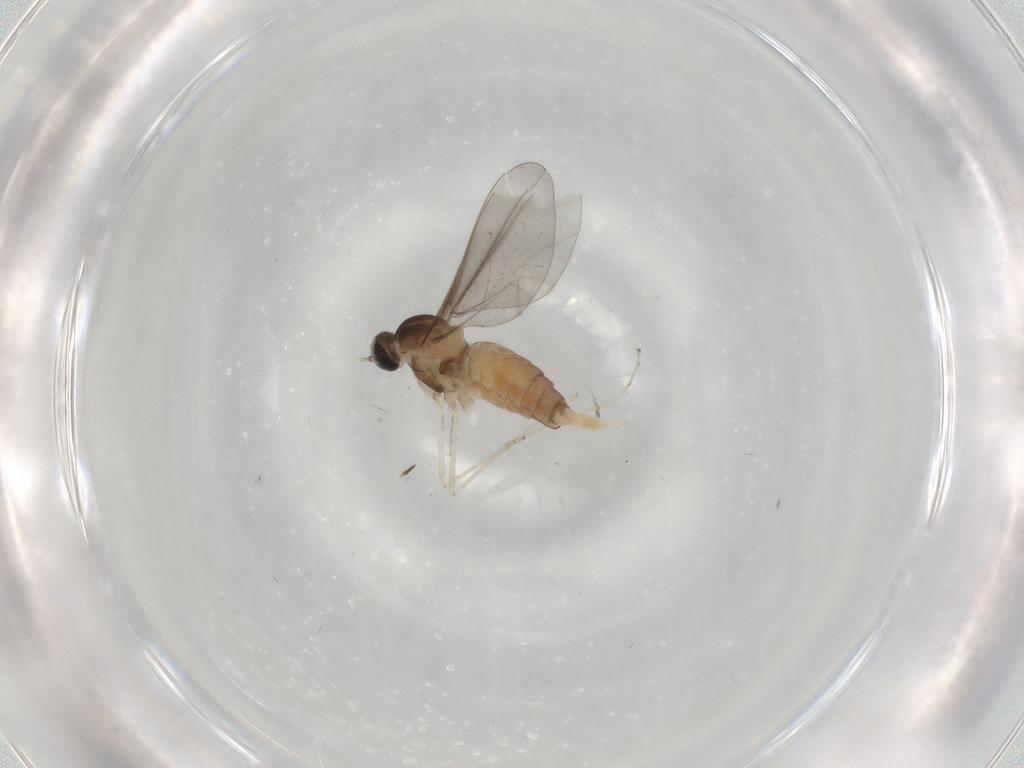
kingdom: Animalia
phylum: Arthropoda
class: Insecta
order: Diptera
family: Cecidomyiidae
